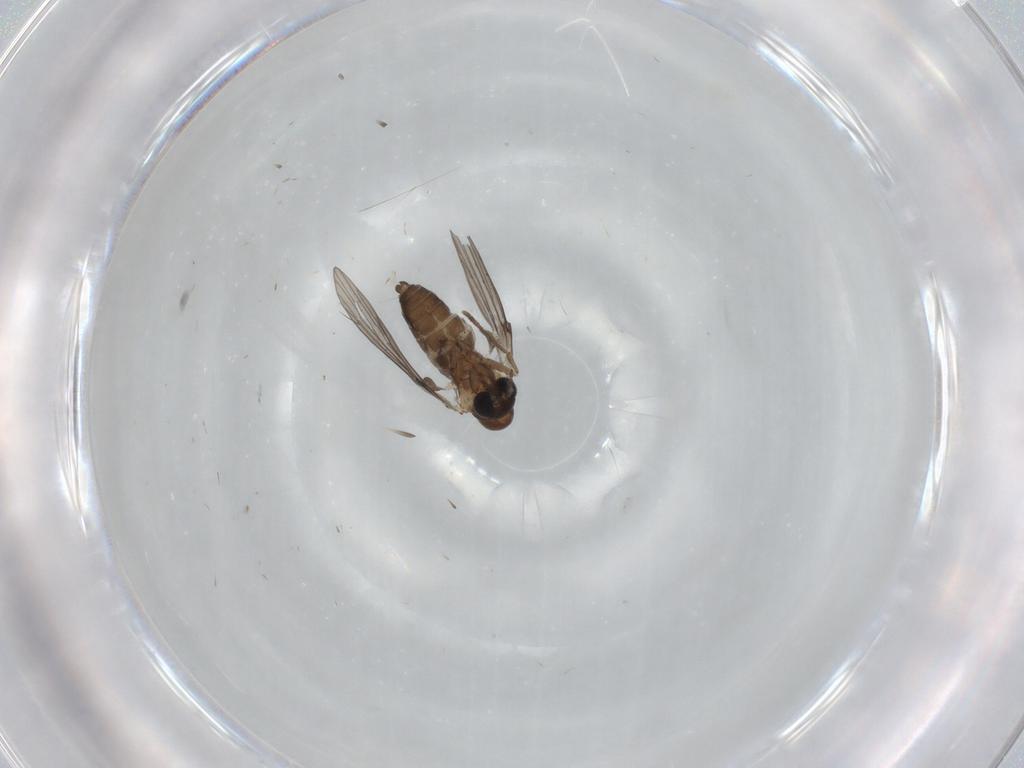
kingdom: Animalia
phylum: Arthropoda
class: Insecta
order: Diptera
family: Psychodidae
